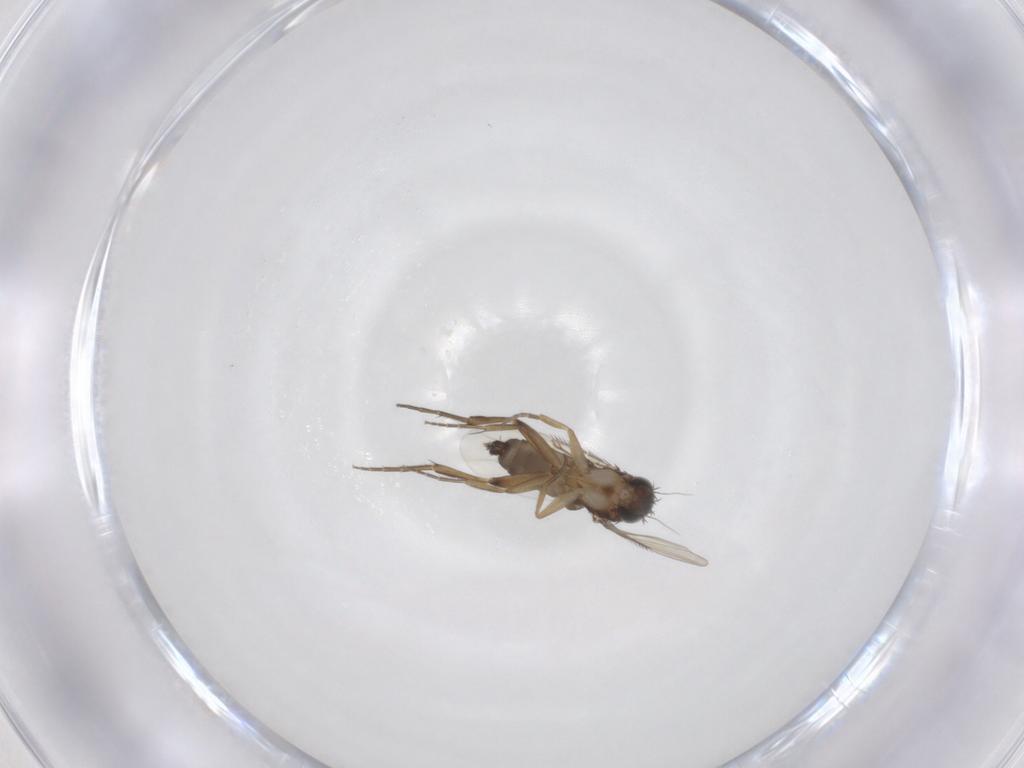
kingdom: Animalia
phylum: Arthropoda
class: Insecta
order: Diptera
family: Phoridae
